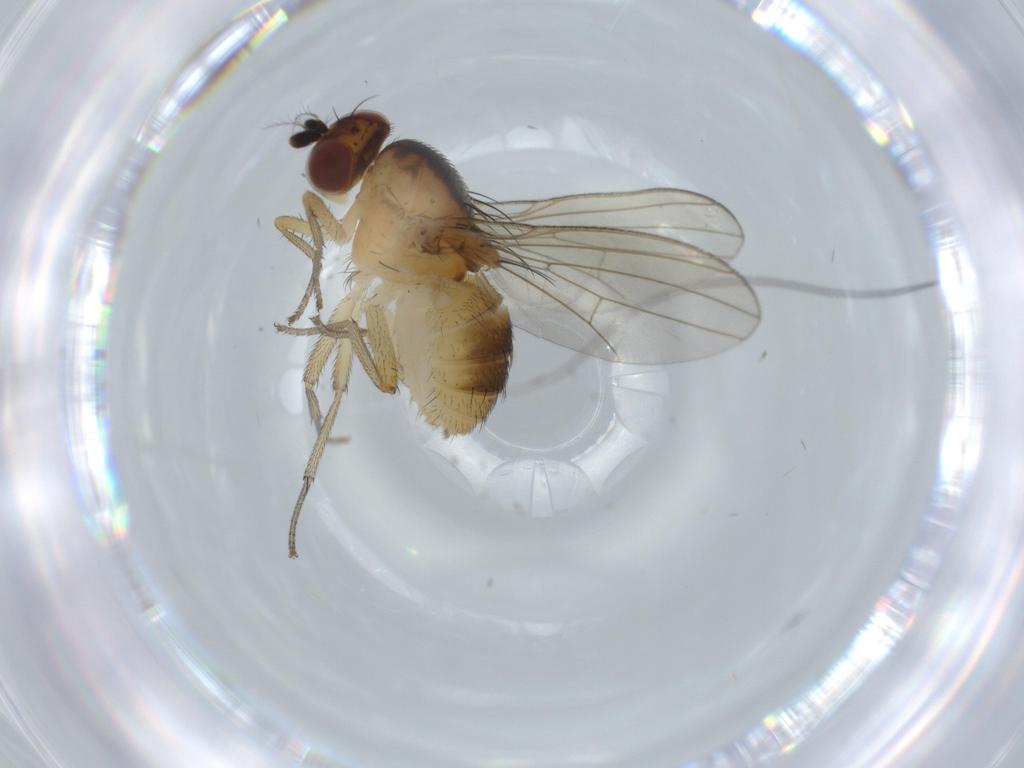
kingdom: Animalia
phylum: Arthropoda
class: Insecta
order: Diptera
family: Lauxaniidae
